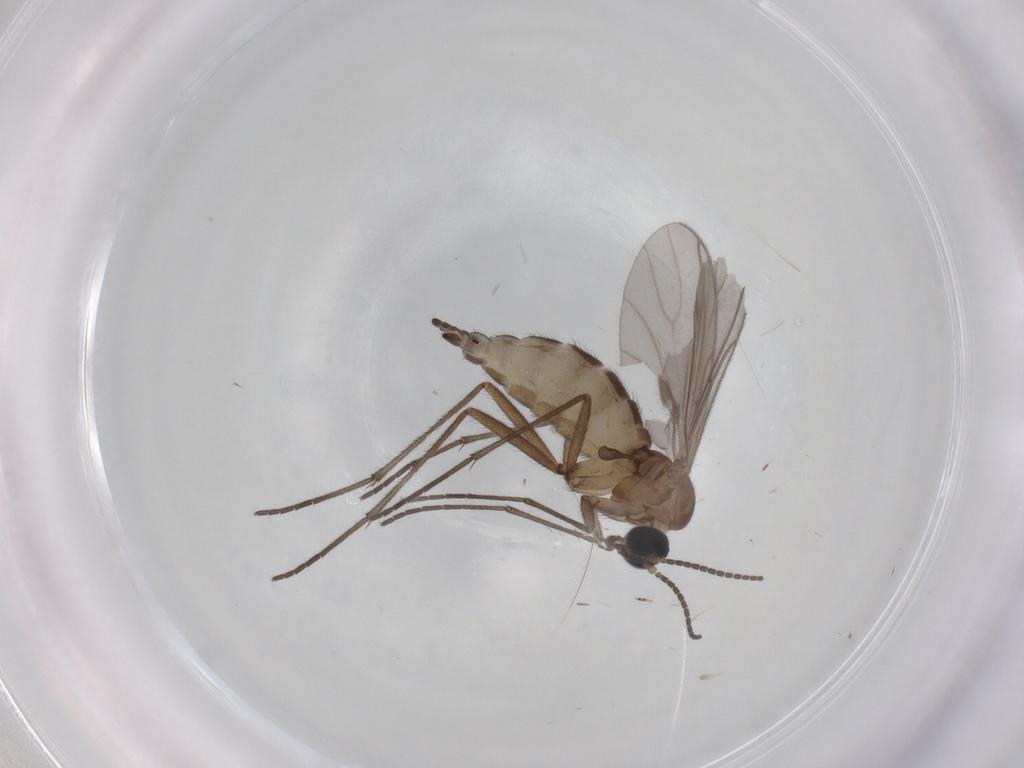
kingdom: Animalia
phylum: Arthropoda
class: Insecta
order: Diptera
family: Sciaridae
